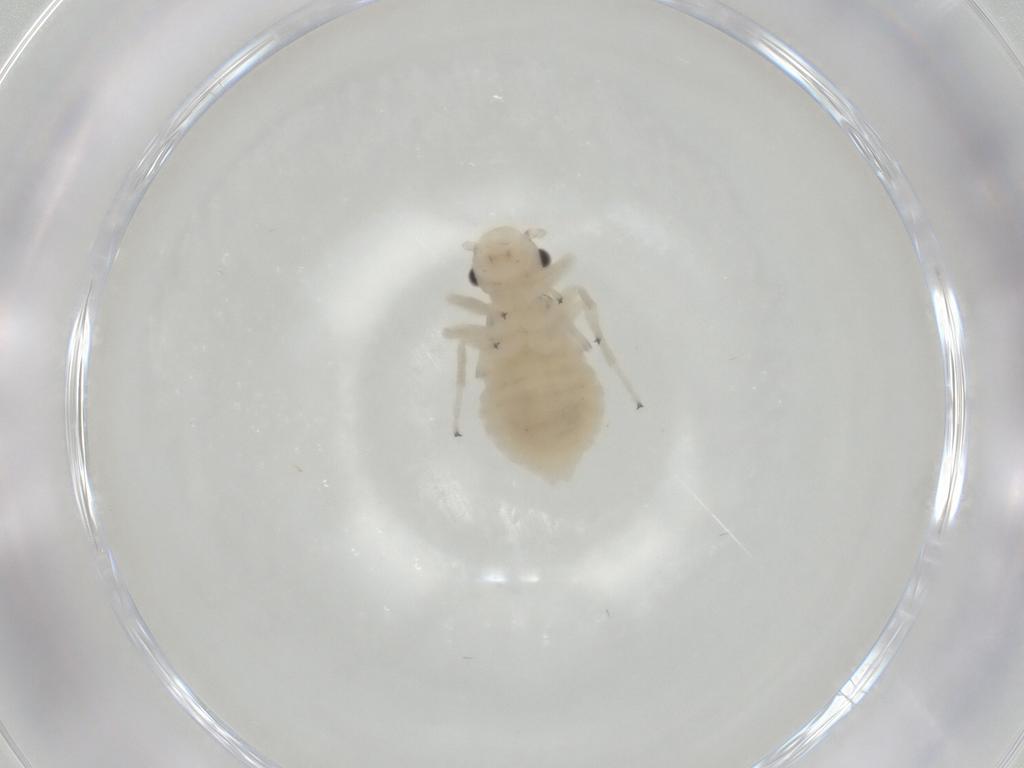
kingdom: Animalia
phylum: Arthropoda
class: Insecta
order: Psocodea
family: Amphipsocidae
